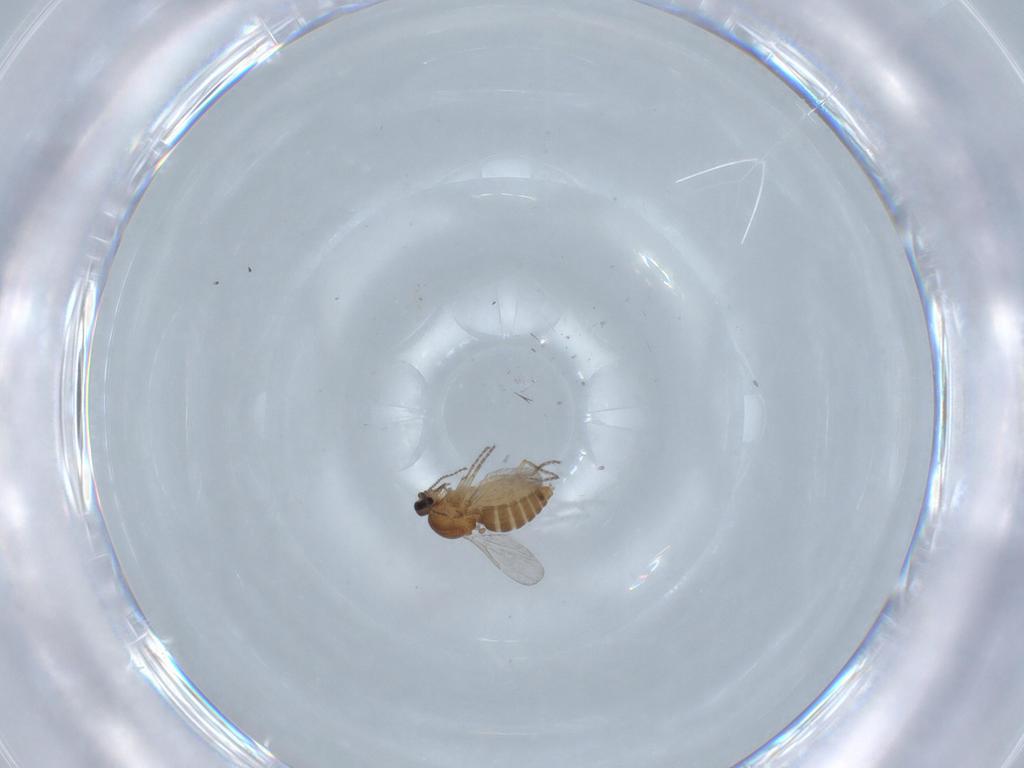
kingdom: Animalia
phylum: Arthropoda
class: Insecta
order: Diptera
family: Ceratopogonidae
